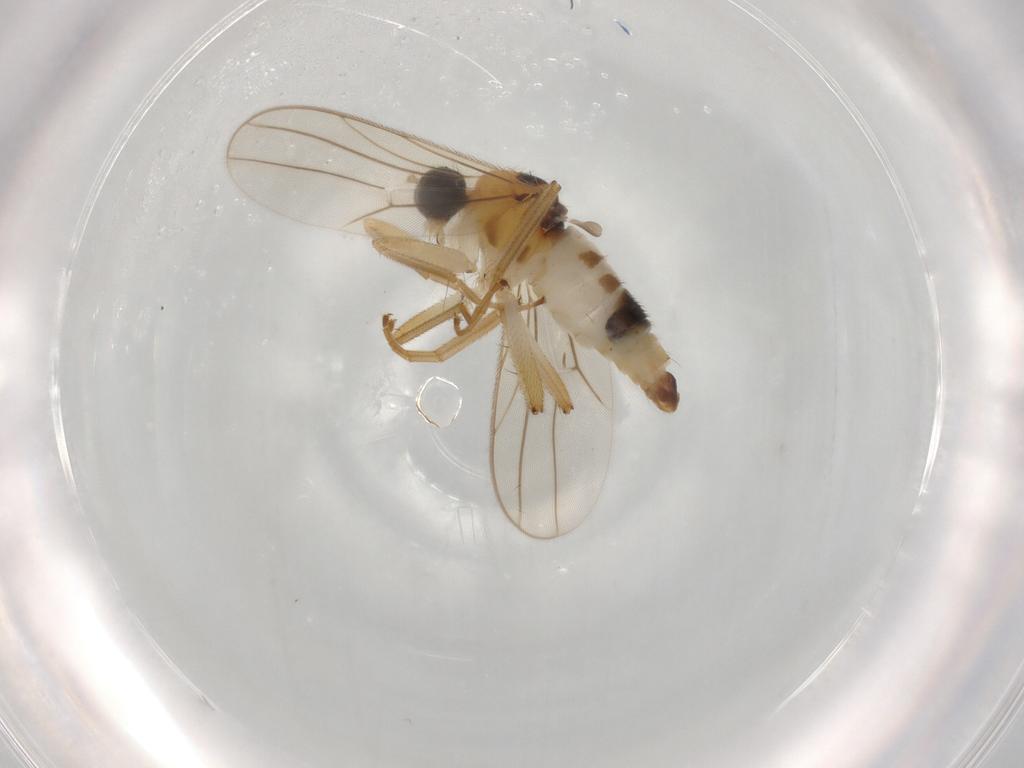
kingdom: Animalia
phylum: Arthropoda
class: Insecta
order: Diptera
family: Hybotidae
